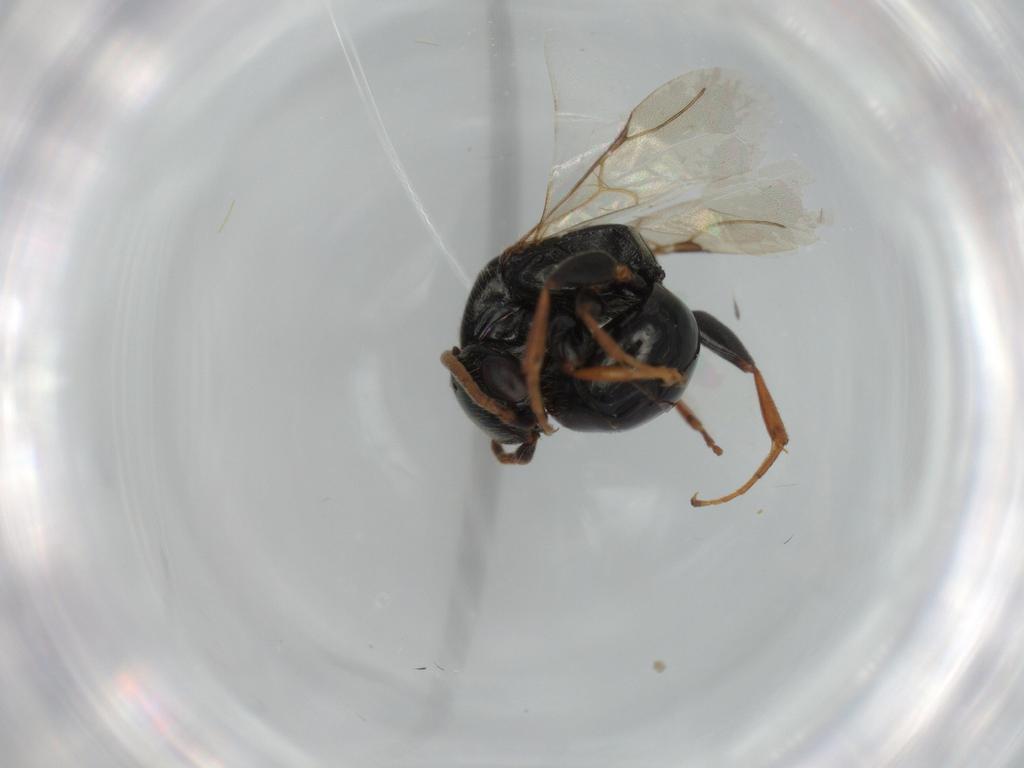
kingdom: Animalia
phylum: Arthropoda
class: Insecta
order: Hymenoptera
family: Bethylidae
